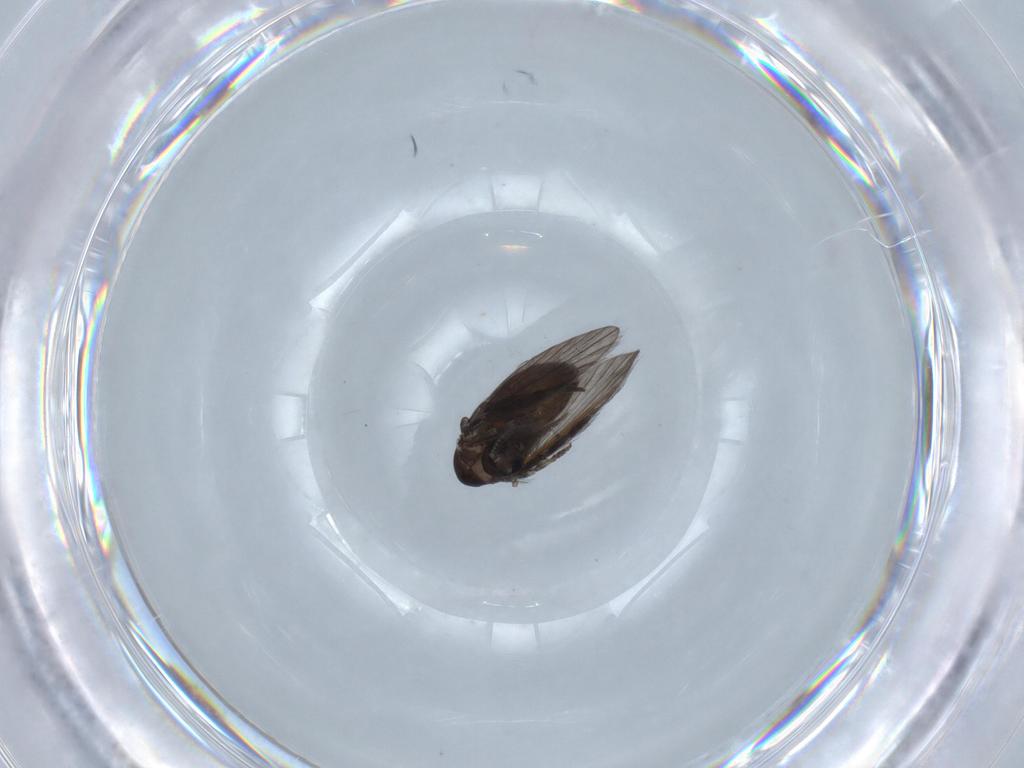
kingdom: Animalia
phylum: Arthropoda
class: Insecta
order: Diptera
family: Psychodidae
